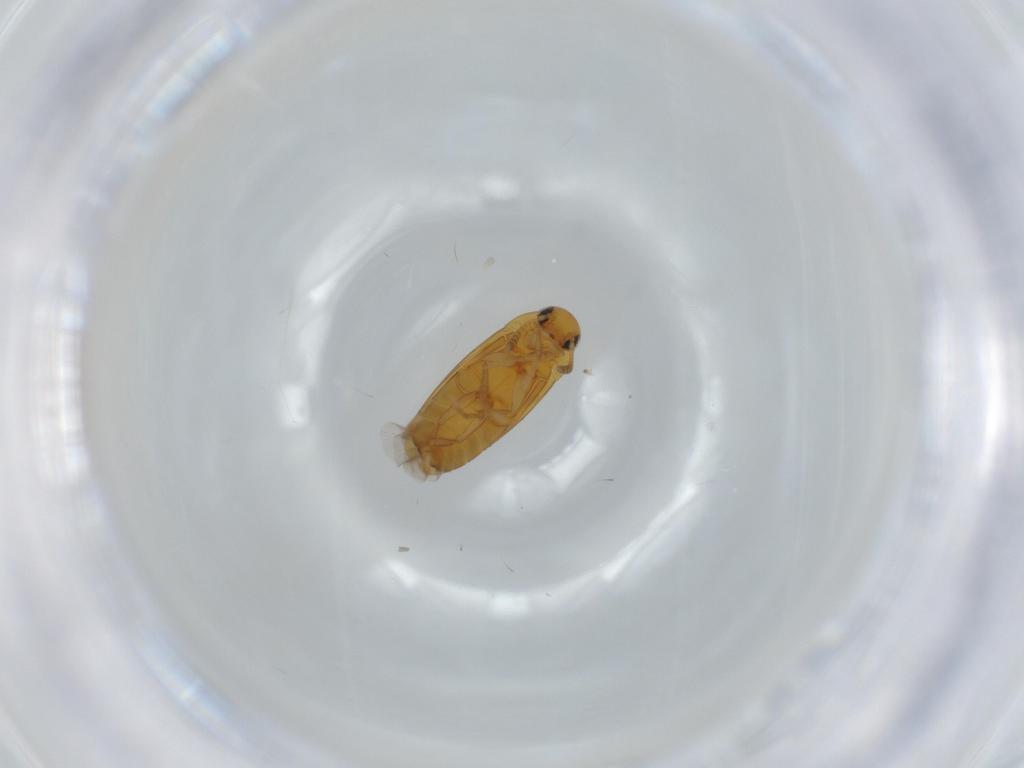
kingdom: Animalia
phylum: Arthropoda
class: Insecta
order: Coleoptera
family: Scraptiidae
